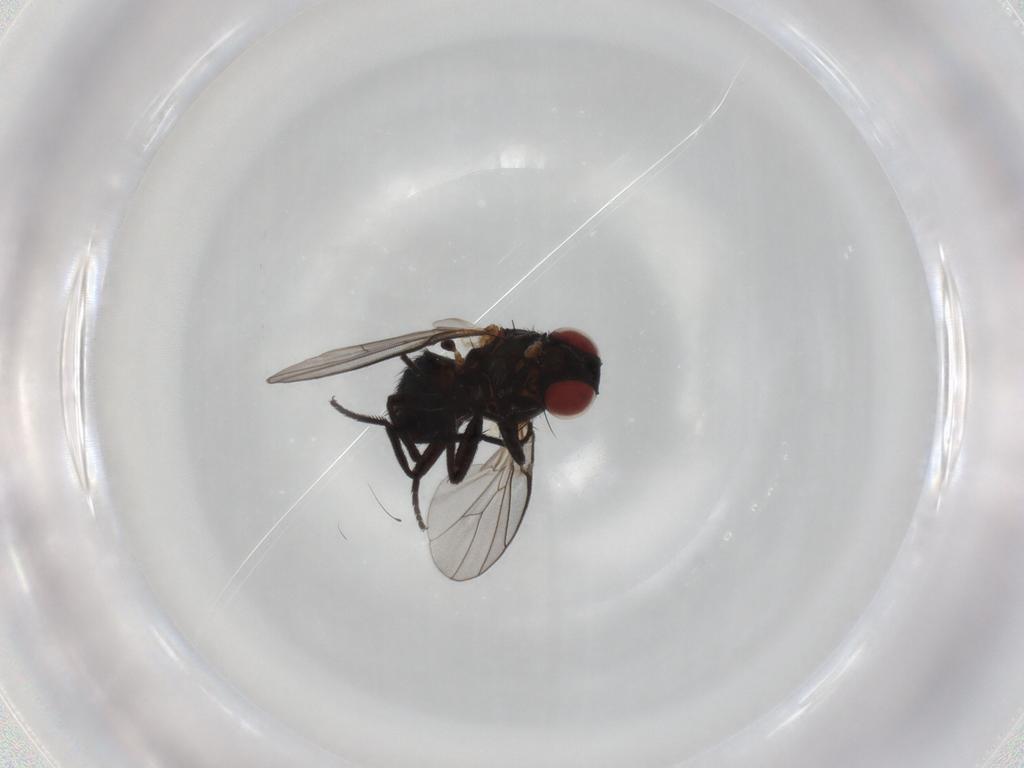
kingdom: Animalia
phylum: Arthropoda
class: Insecta
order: Diptera
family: Agromyzidae
